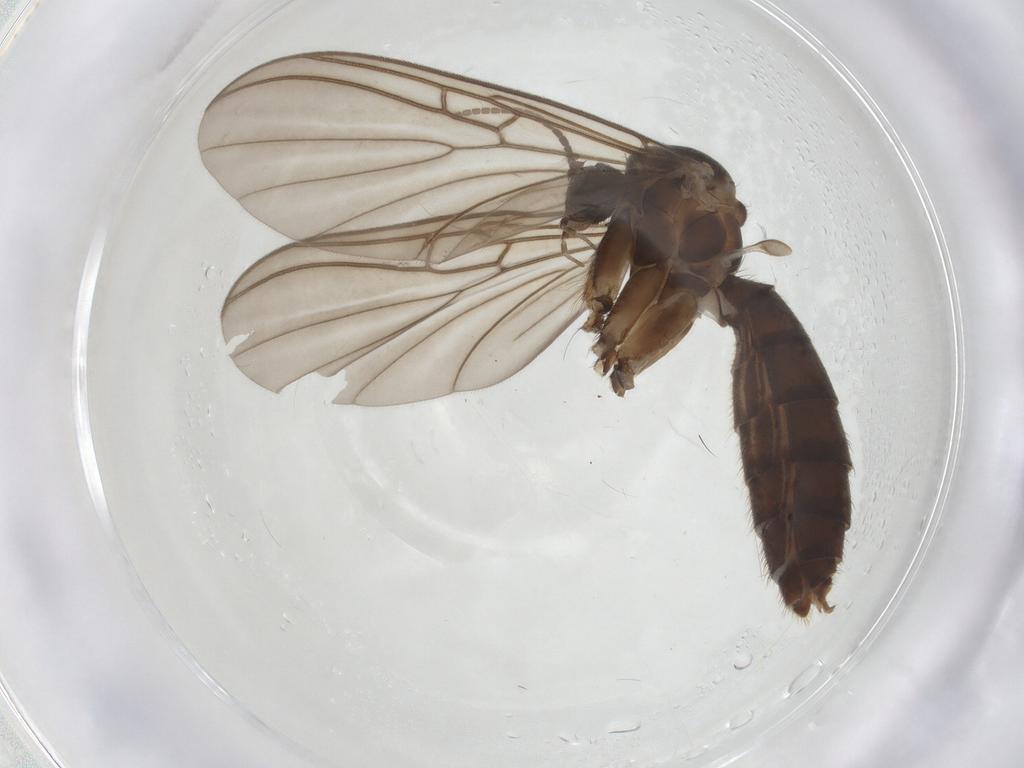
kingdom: Animalia
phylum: Arthropoda
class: Insecta
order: Diptera
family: Mycetophilidae
